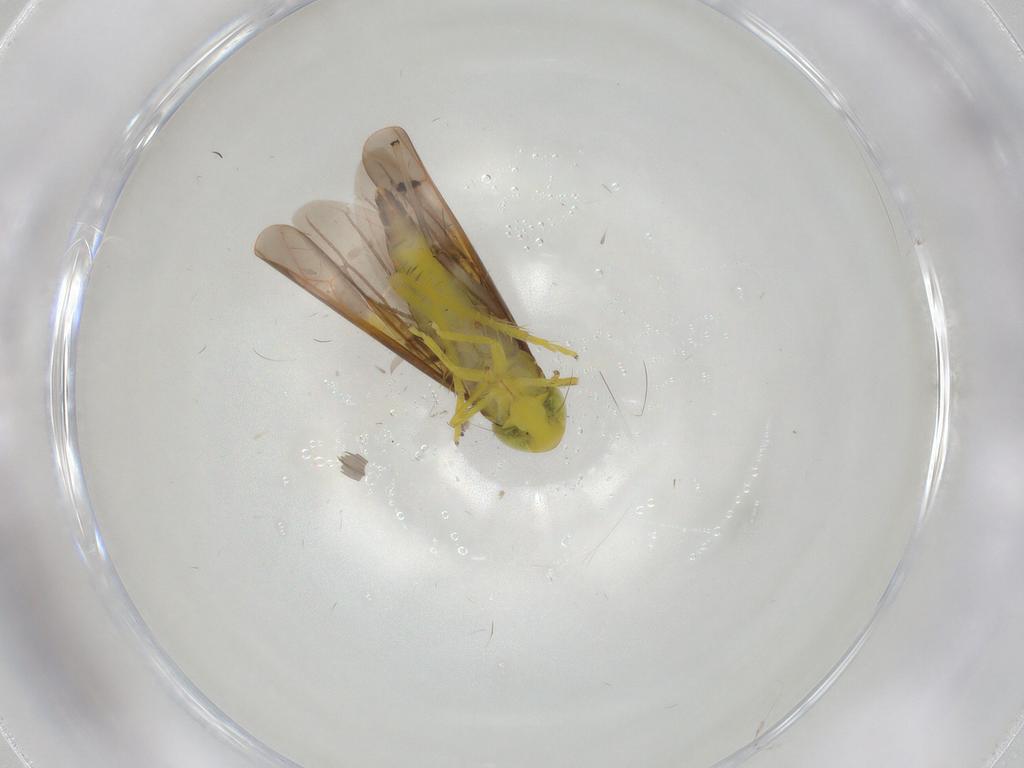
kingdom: Animalia
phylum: Arthropoda
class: Insecta
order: Hemiptera
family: Cicadellidae
